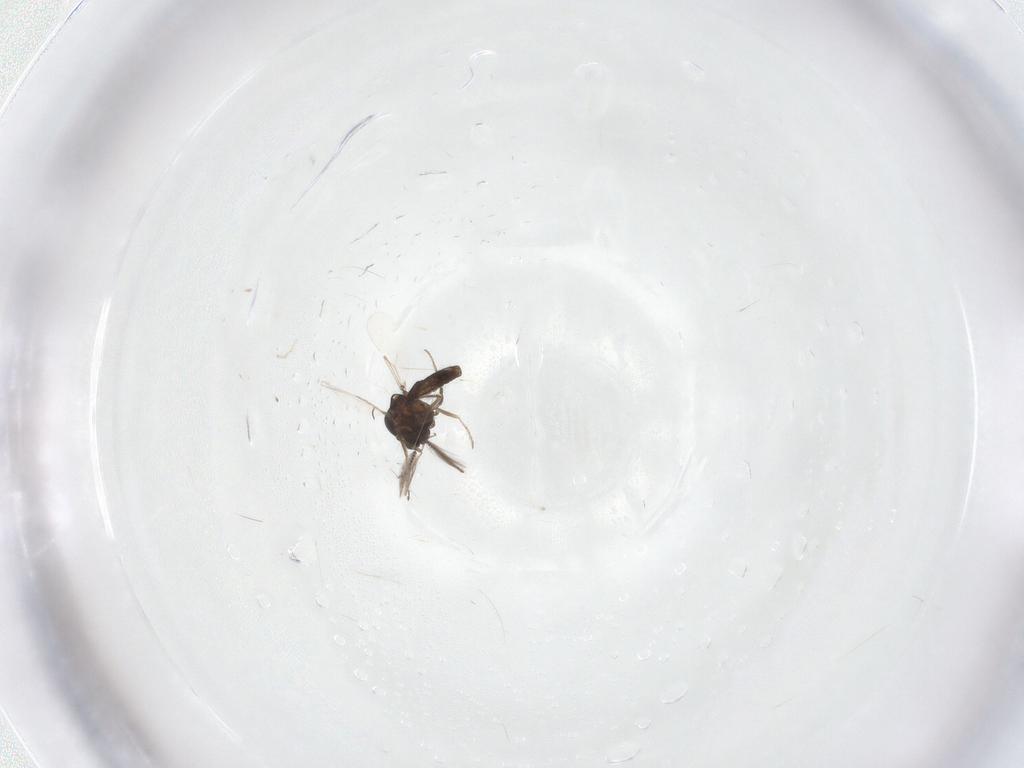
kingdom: Animalia
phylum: Arthropoda
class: Insecta
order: Diptera
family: Ceratopogonidae
